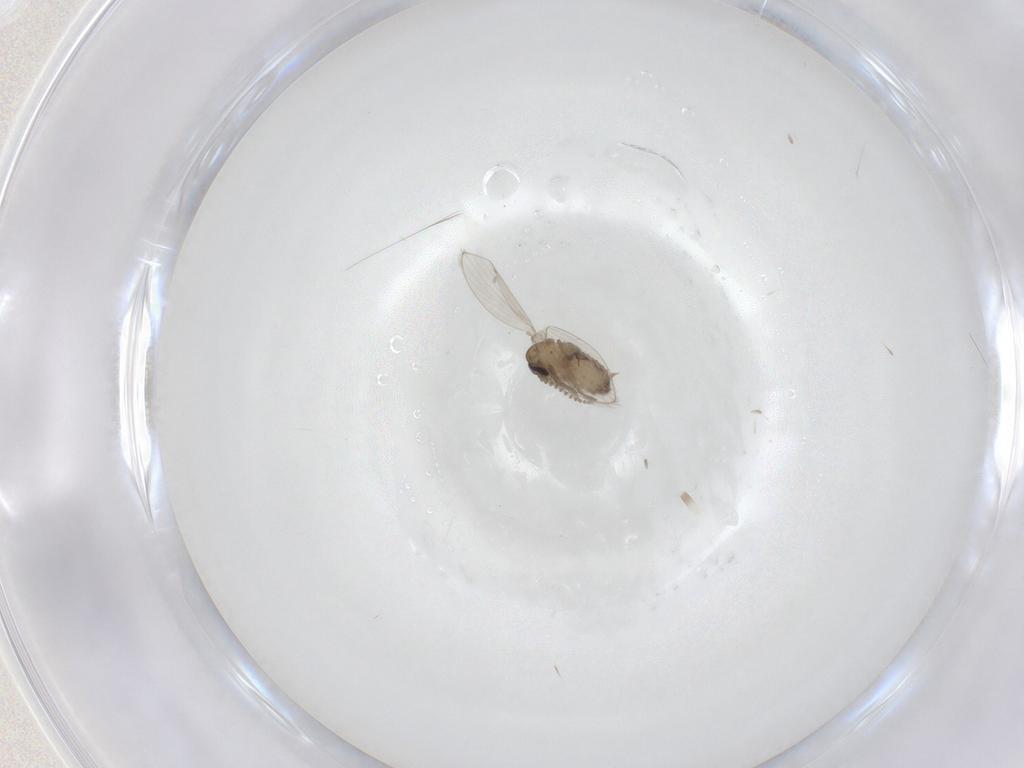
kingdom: Animalia
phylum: Arthropoda
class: Insecta
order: Diptera
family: Psychodidae
